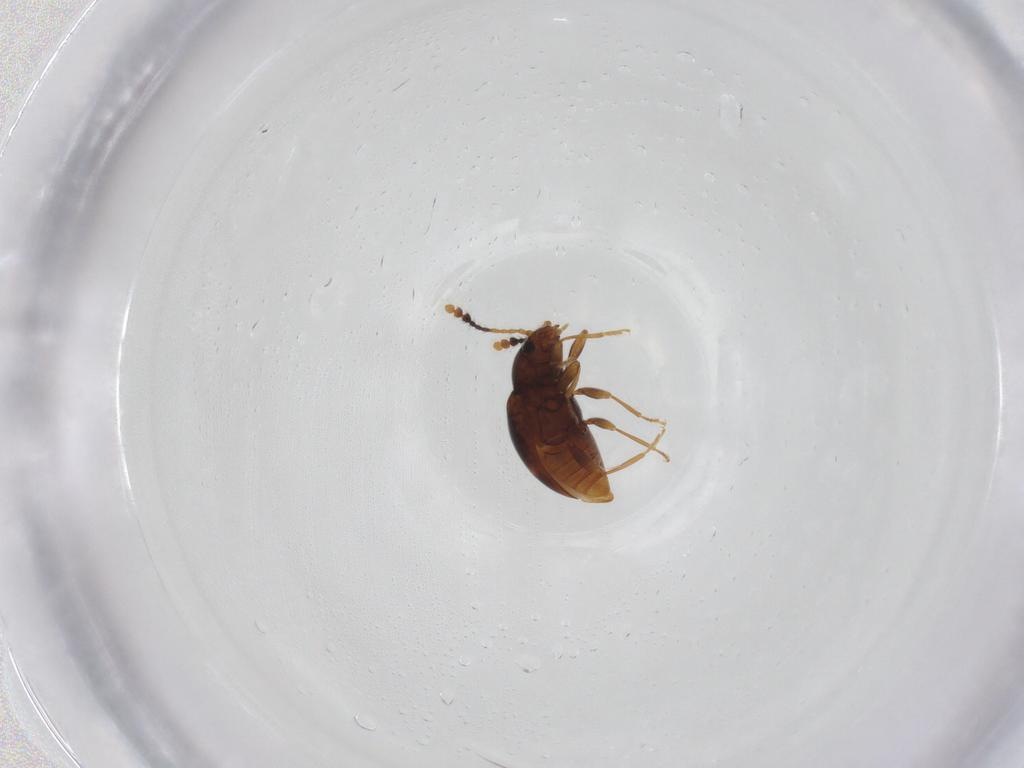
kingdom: Animalia
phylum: Arthropoda
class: Insecta
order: Coleoptera
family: Erotylidae
